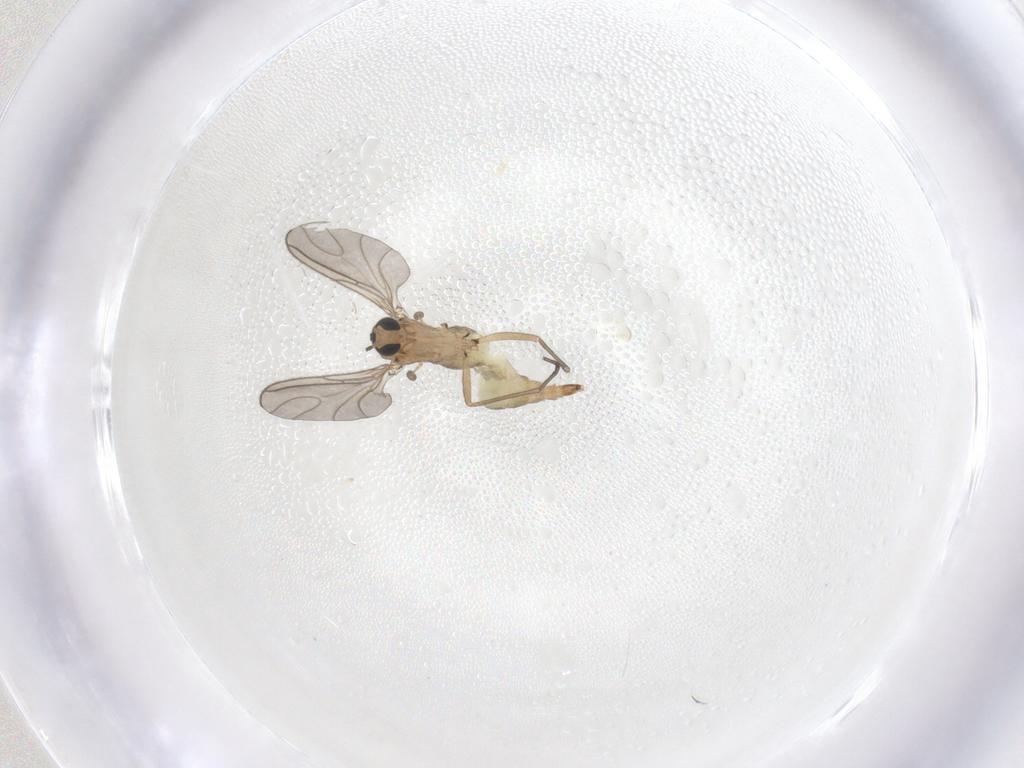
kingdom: Animalia
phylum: Arthropoda
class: Insecta
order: Diptera
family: Sciaridae
